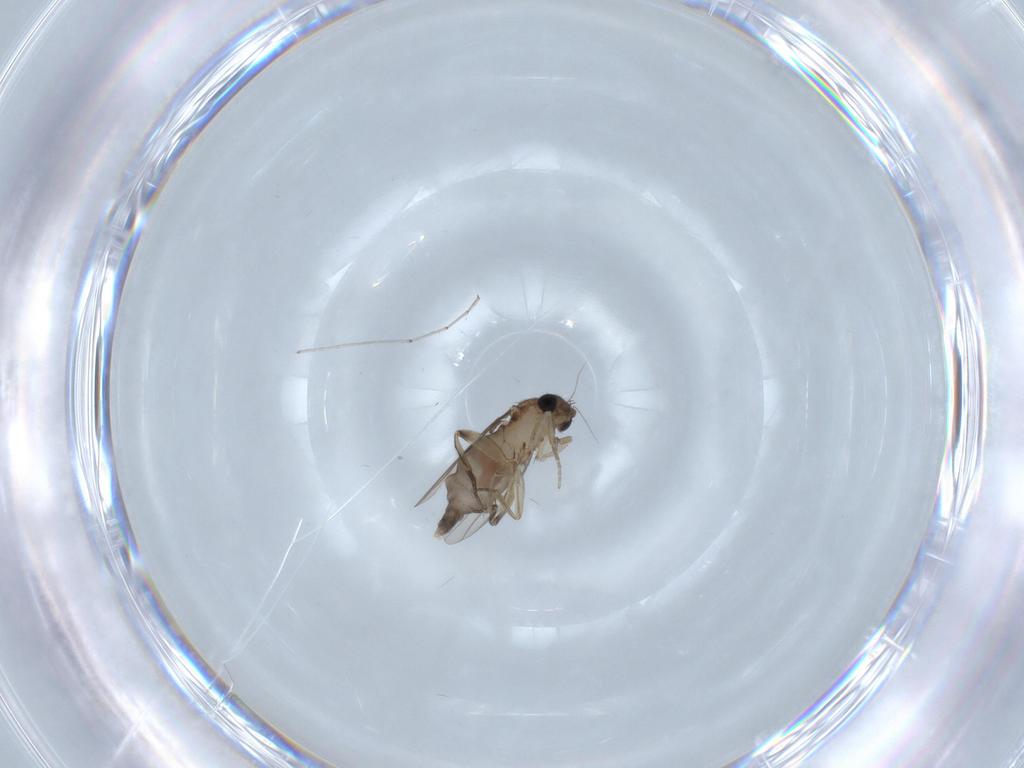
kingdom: Animalia
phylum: Arthropoda
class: Insecta
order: Diptera
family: Phoridae
